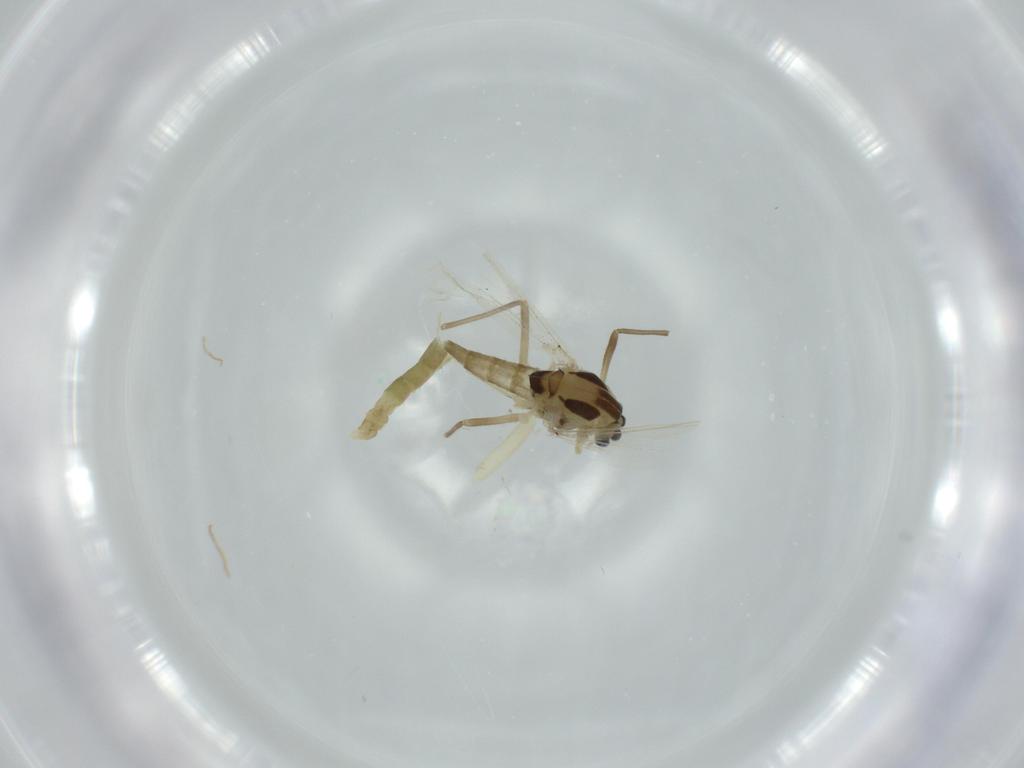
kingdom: Animalia
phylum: Arthropoda
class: Insecta
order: Diptera
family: Chironomidae
